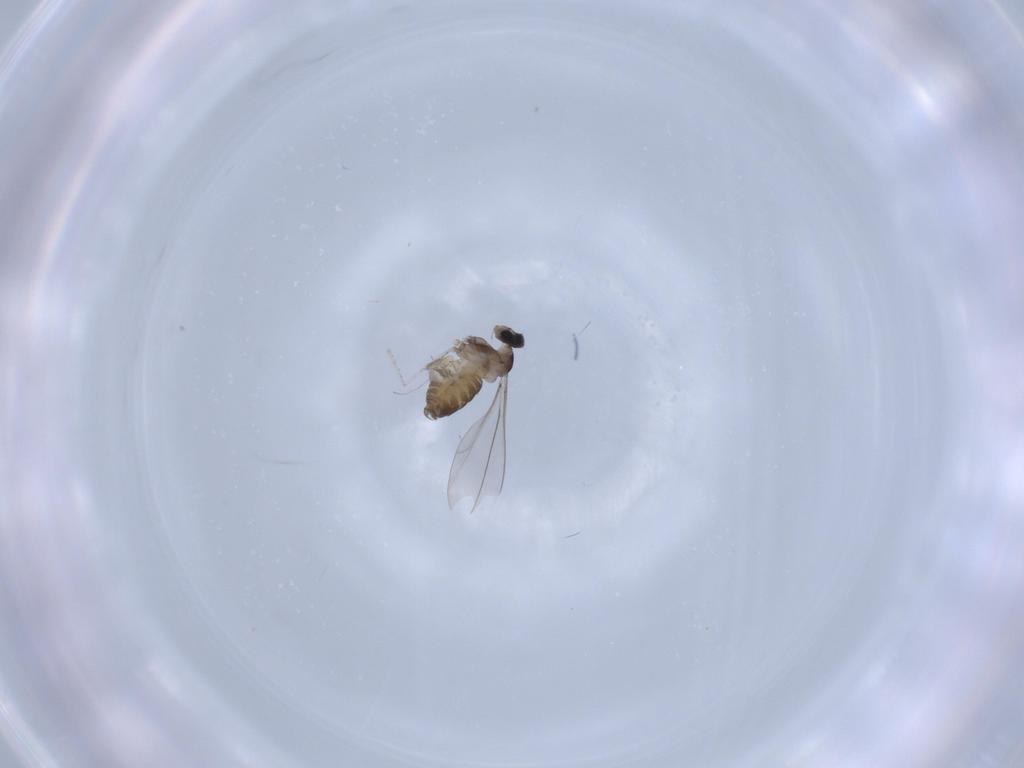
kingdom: Animalia
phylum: Arthropoda
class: Insecta
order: Diptera
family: Cecidomyiidae
